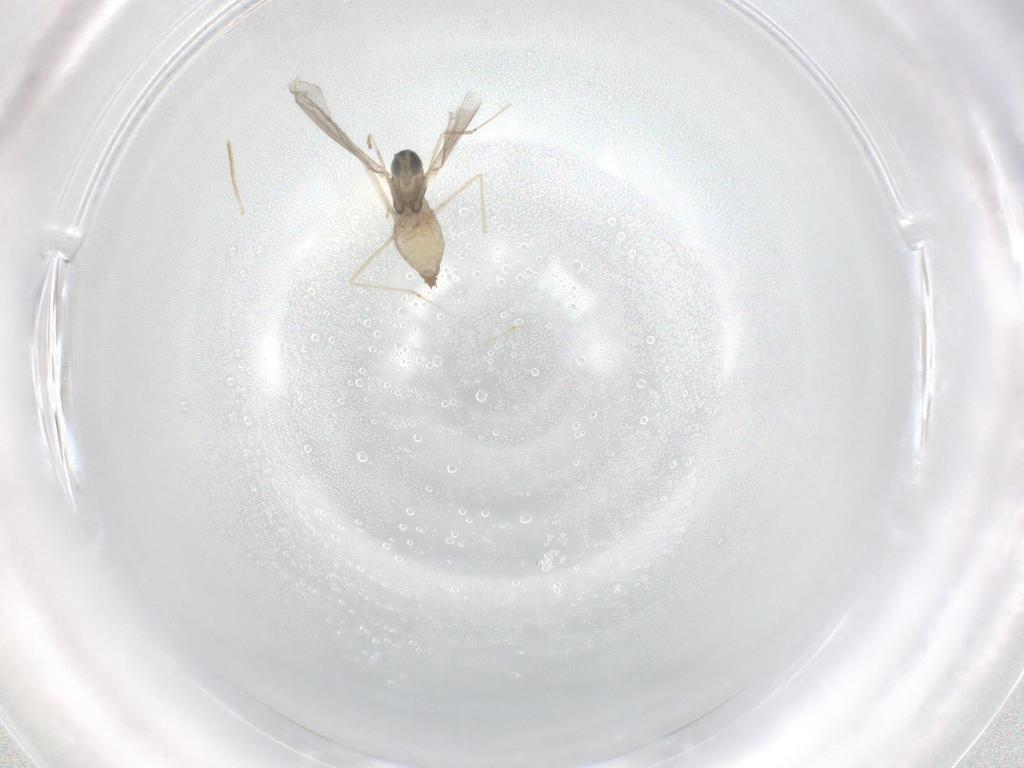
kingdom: Animalia
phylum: Arthropoda
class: Insecta
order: Diptera
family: Cecidomyiidae
